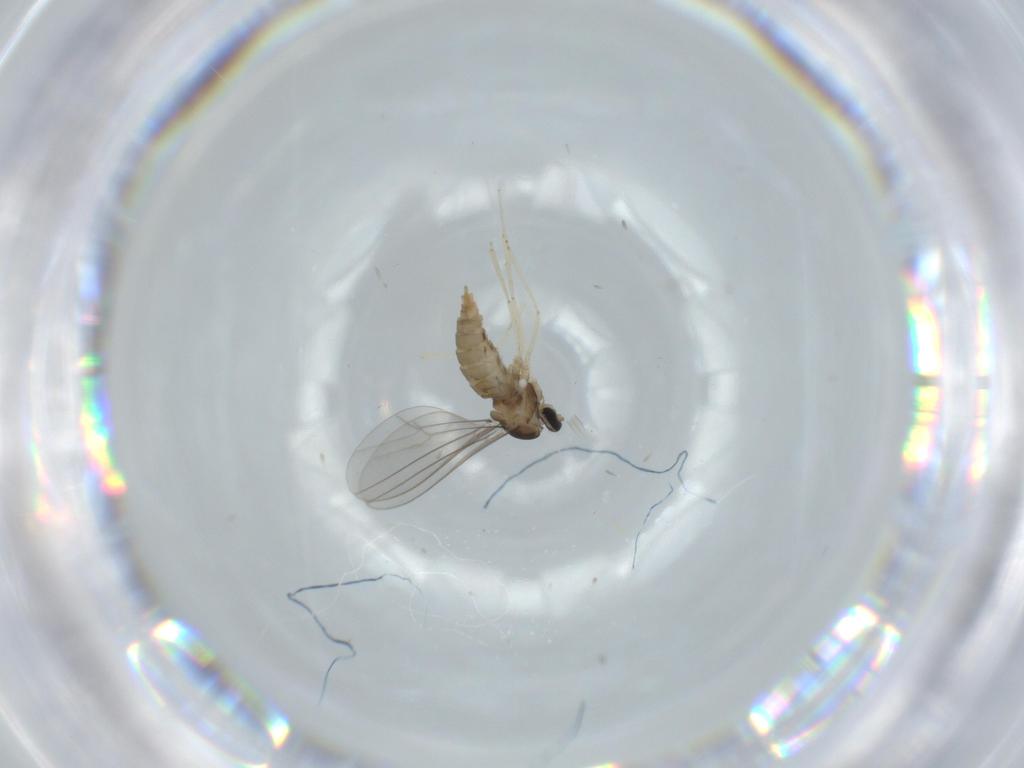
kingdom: Animalia
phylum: Arthropoda
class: Insecta
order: Diptera
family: Cecidomyiidae
